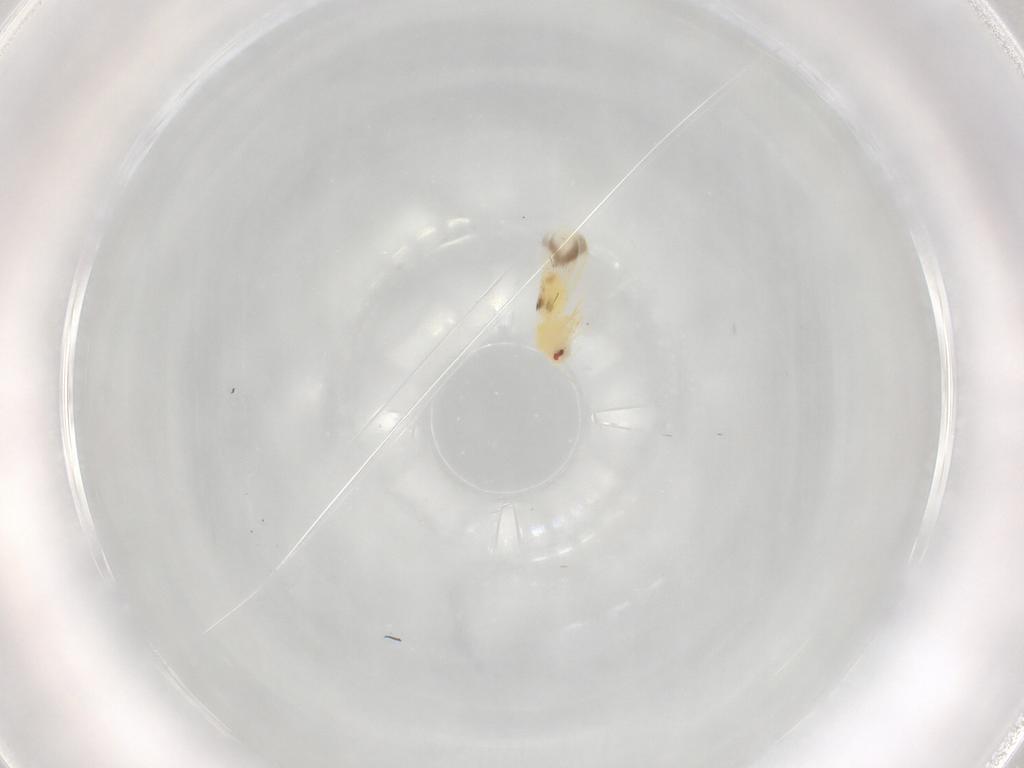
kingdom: Animalia
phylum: Arthropoda
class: Insecta
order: Hemiptera
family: Aleyrodidae
